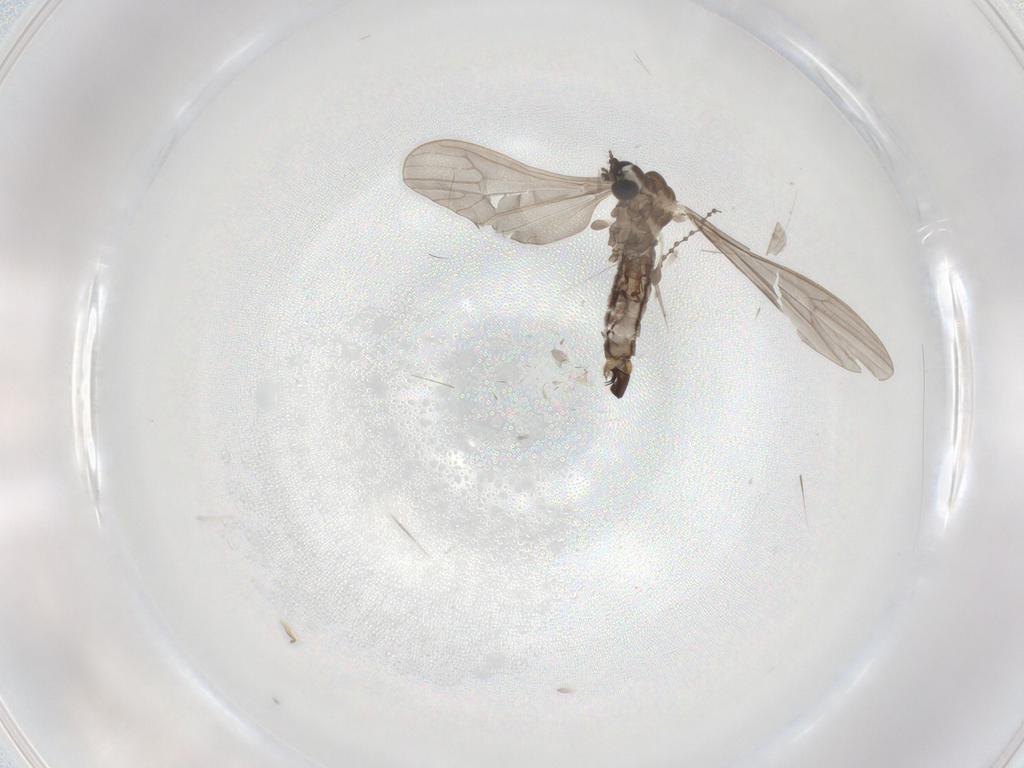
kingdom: Animalia
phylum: Arthropoda
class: Insecta
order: Diptera
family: Limoniidae
